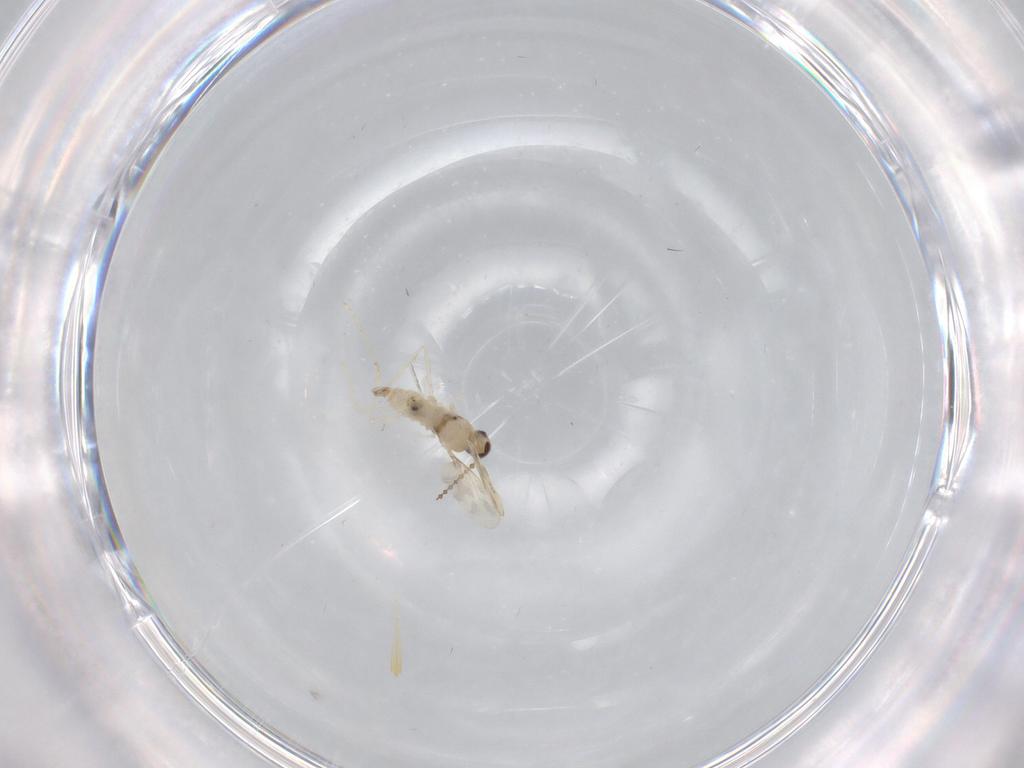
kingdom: Animalia
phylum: Arthropoda
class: Insecta
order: Diptera
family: Cecidomyiidae
